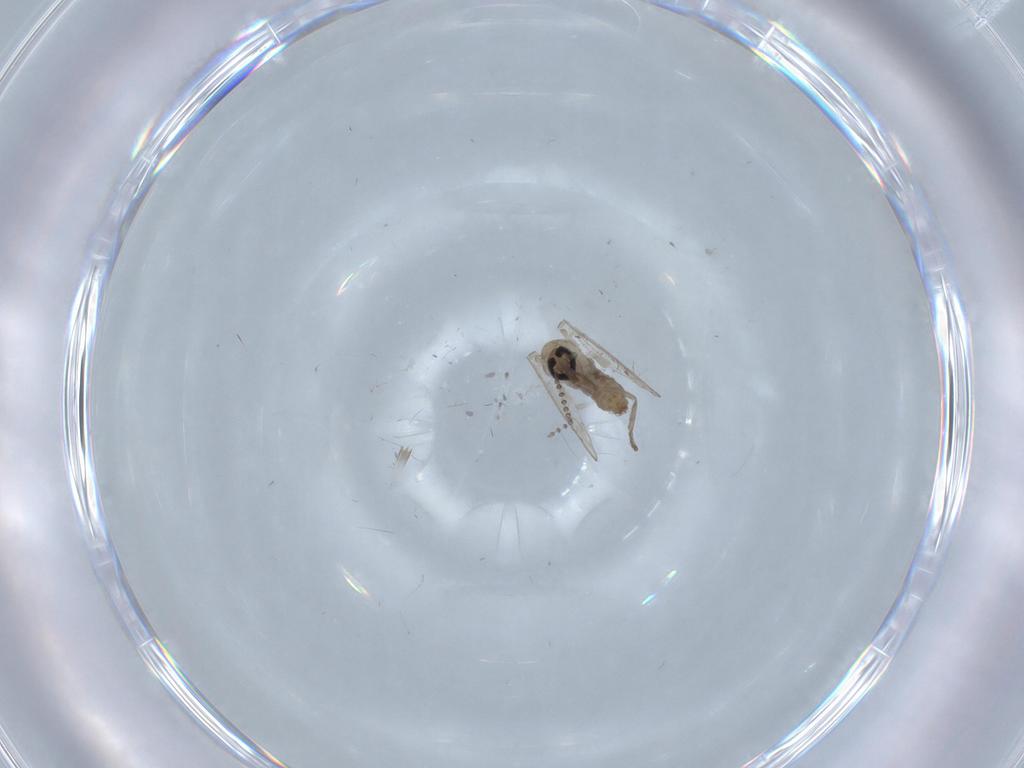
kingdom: Animalia
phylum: Arthropoda
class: Insecta
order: Diptera
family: Psychodidae
